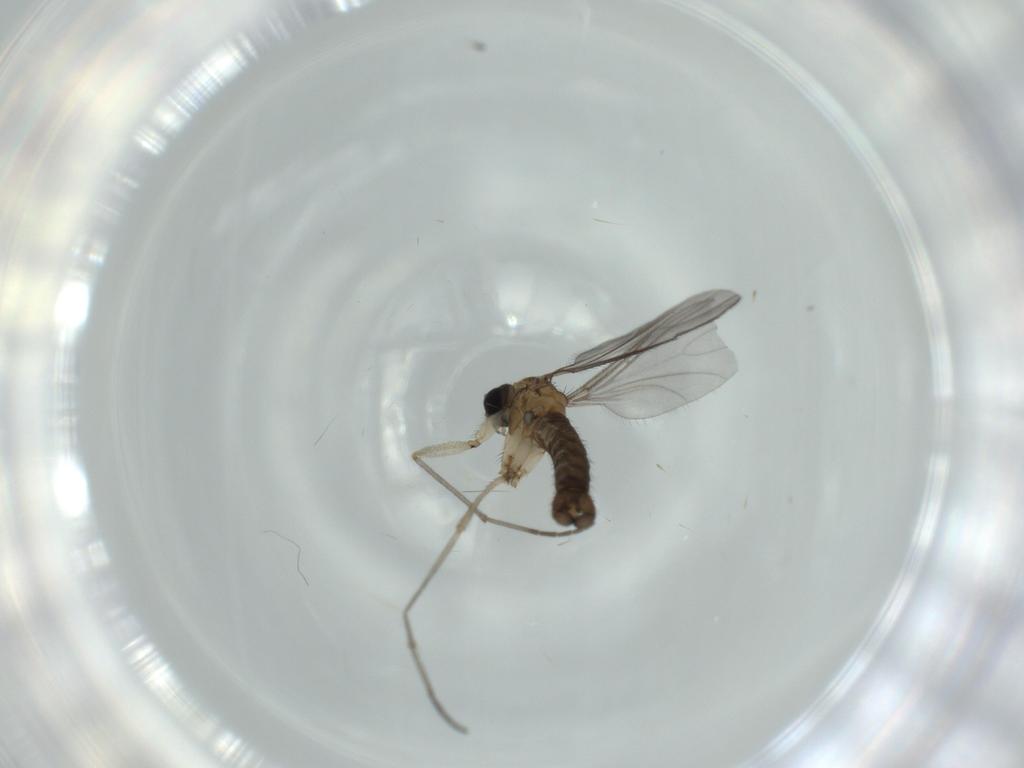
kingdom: Animalia
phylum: Arthropoda
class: Insecta
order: Diptera
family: Sciaridae
